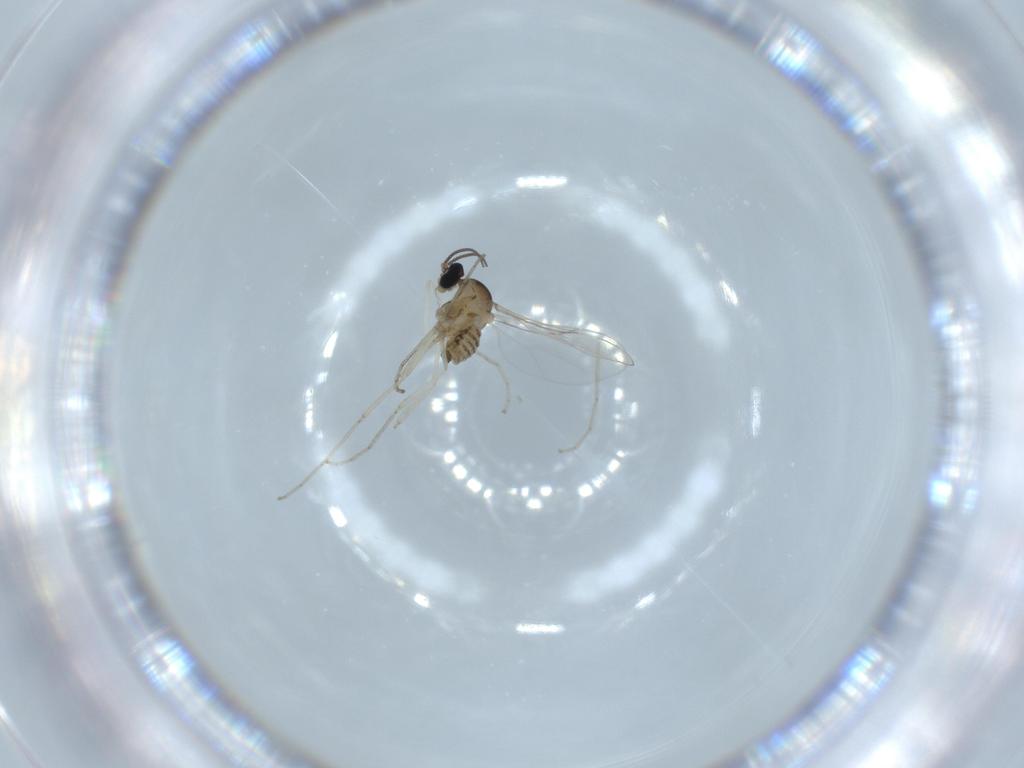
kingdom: Animalia
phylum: Arthropoda
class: Insecta
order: Diptera
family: Cecidomyiidae
